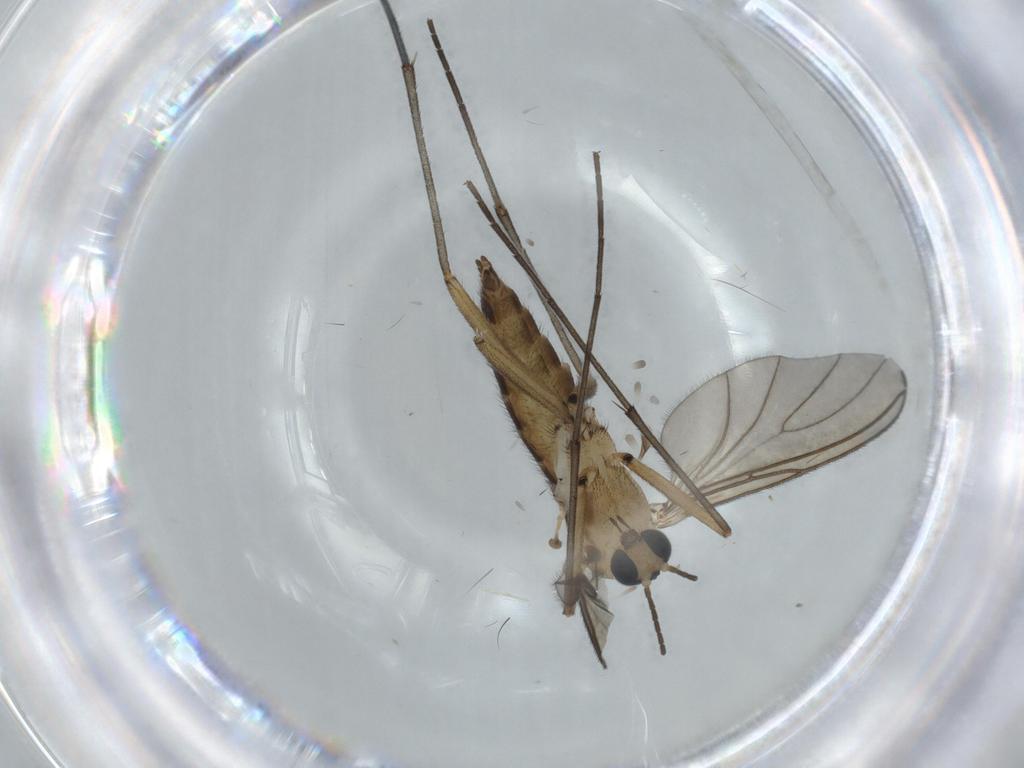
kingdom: Animalia
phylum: Arthropoda
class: Insecta
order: Diptera
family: Sciaridae
